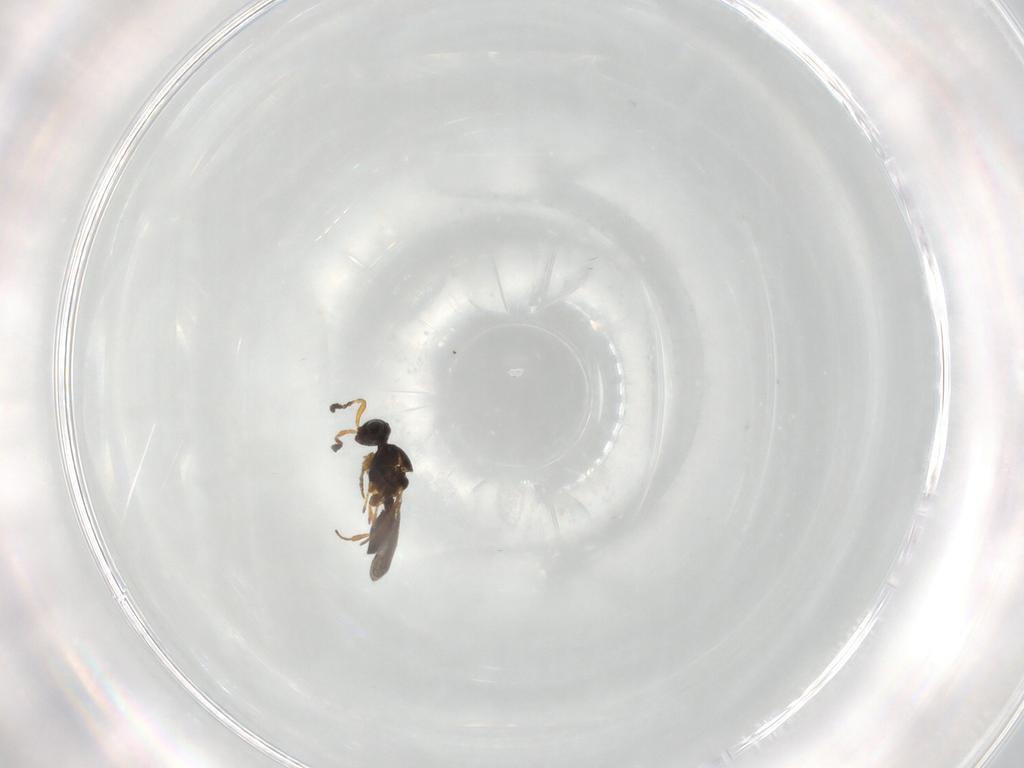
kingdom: Animalia
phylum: Arthropoda
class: Insecta
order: Hymenoptera
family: Platygastridae
